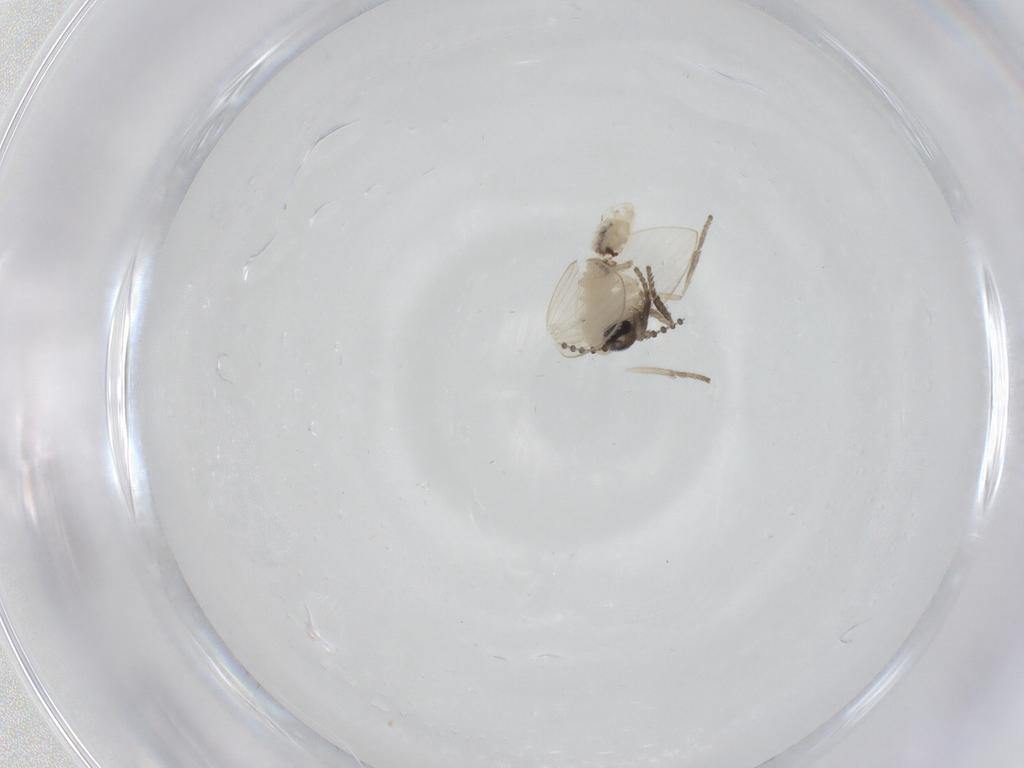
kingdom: Animalia
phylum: Arthropoda
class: Insecta
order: Diptera
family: Psychodidae
